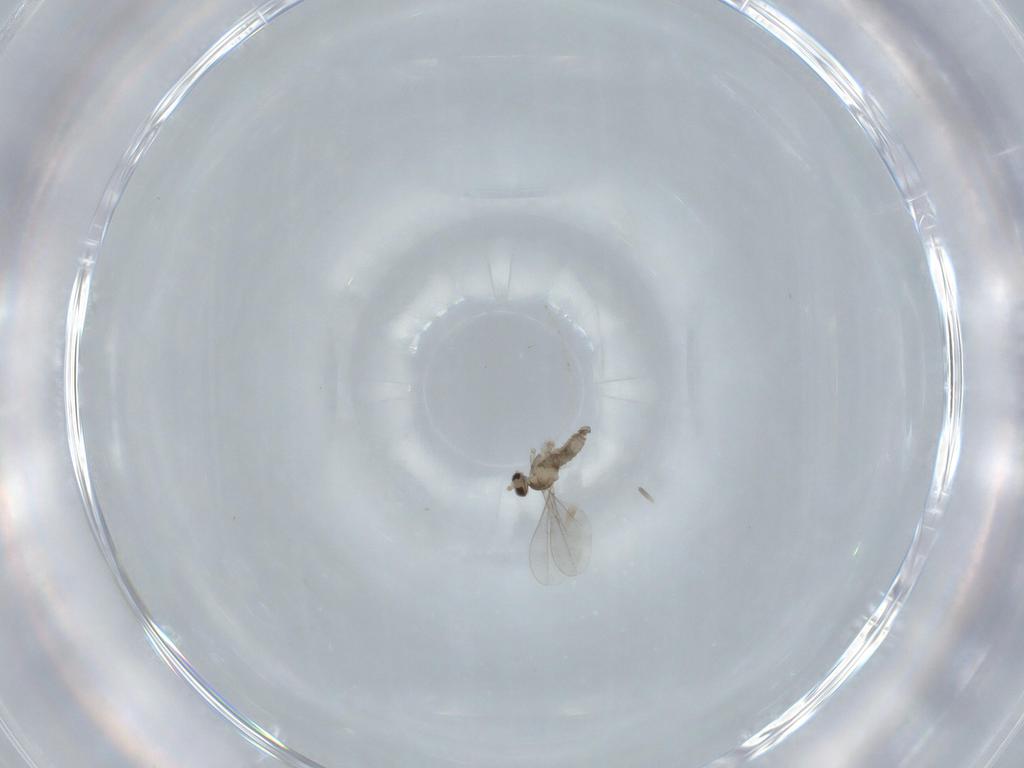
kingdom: Animalia
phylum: Arthropoda
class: Insecta
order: Diptera
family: Cecidomyiidae
